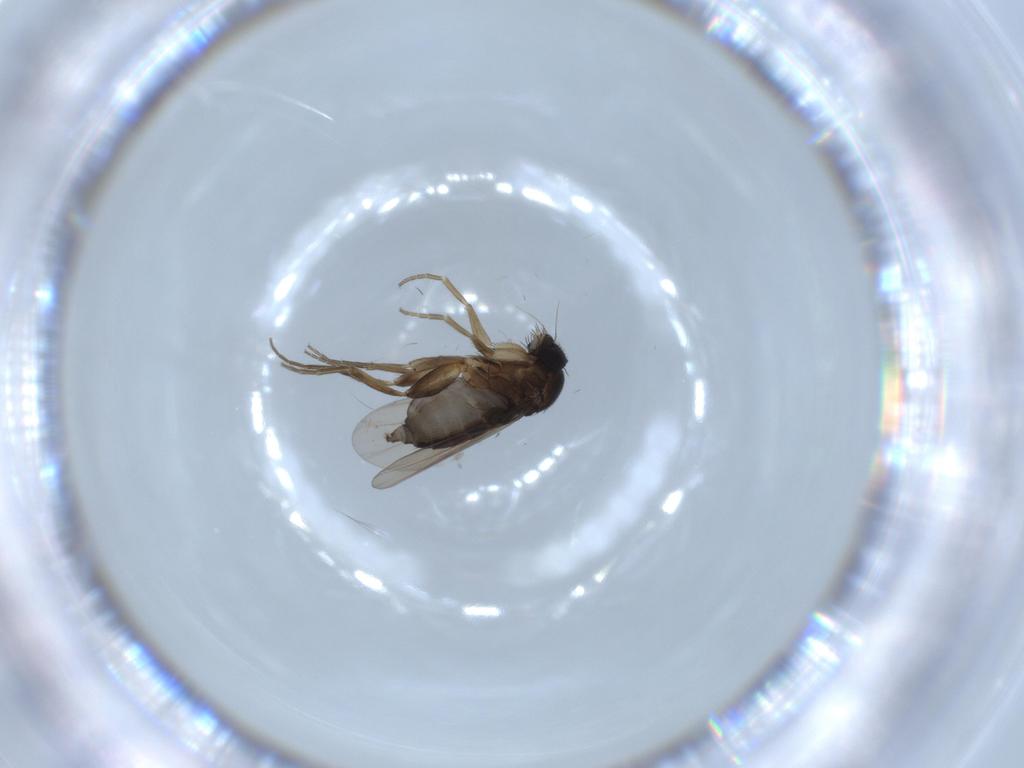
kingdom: Animalia
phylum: Arthropoda
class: Insecta
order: Diptera
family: Phoridae
